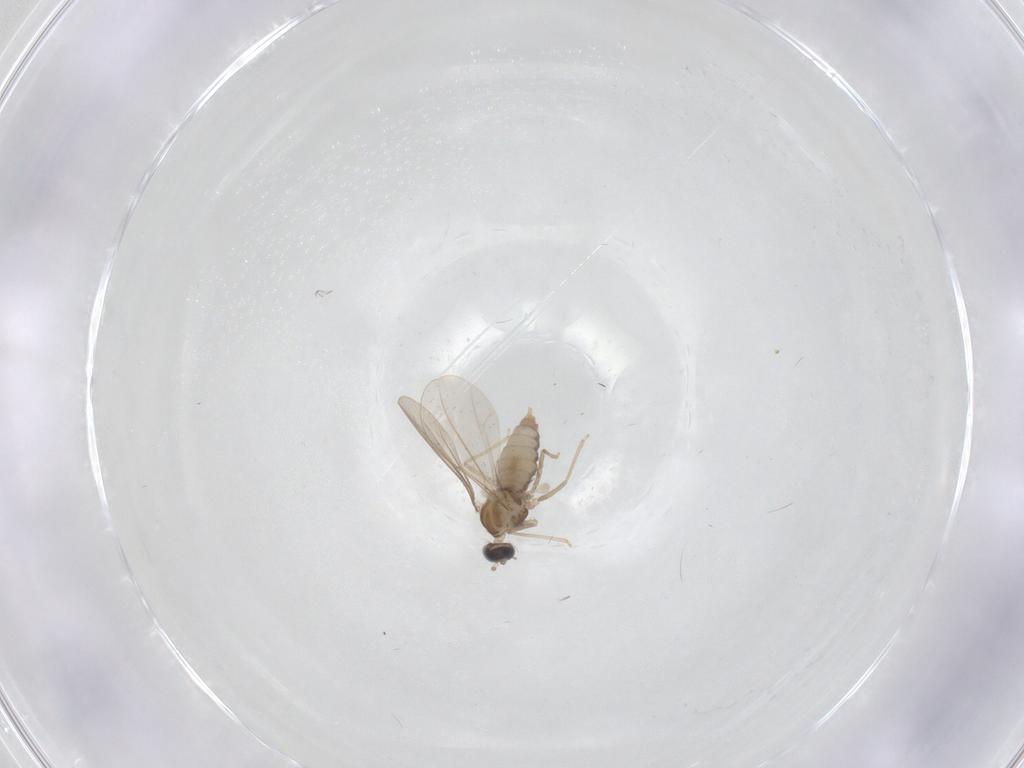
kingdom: Animalia
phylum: Arthropoda
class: Insecta
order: Diptera
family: Cecidomyiidae
